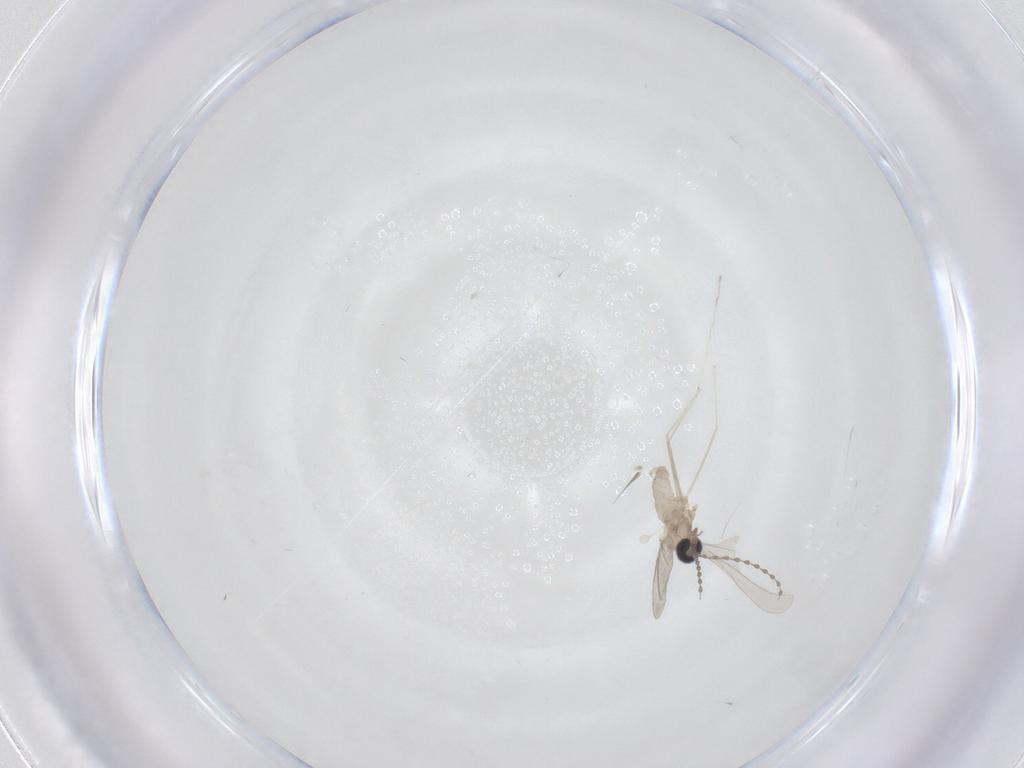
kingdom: Animalia
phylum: Arthropoda
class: Insecta
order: Diptera
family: Cecidomyiidae
